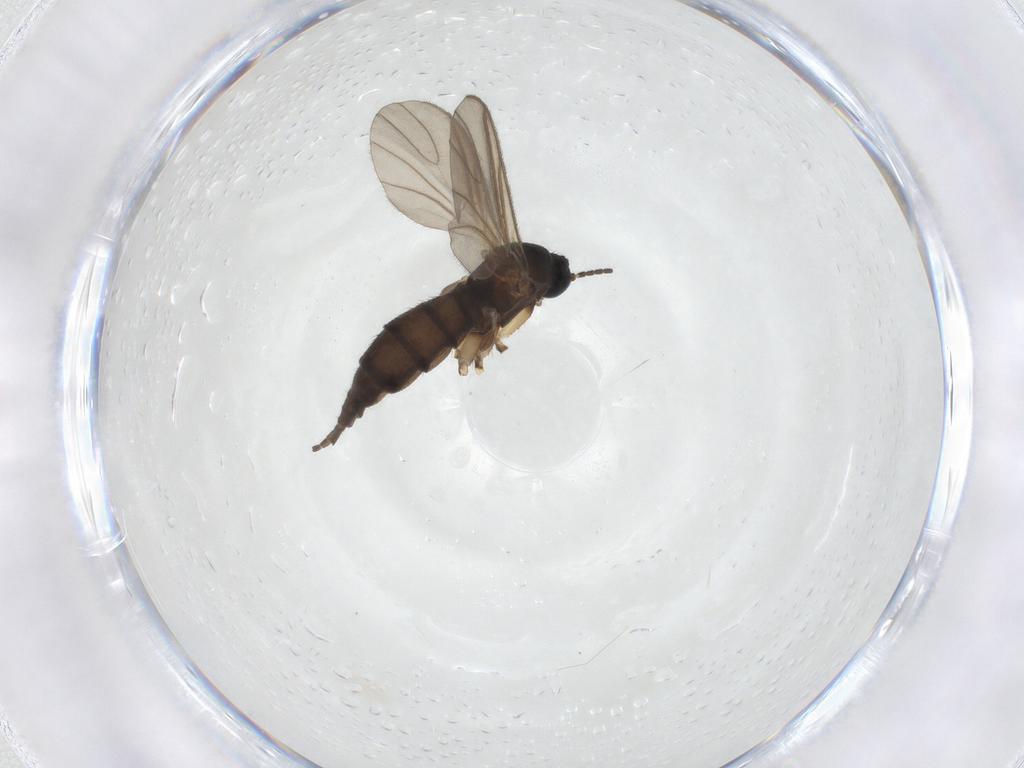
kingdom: Animalia
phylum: Arthropoda
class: Insecta
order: Diptera
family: Sciaridae
